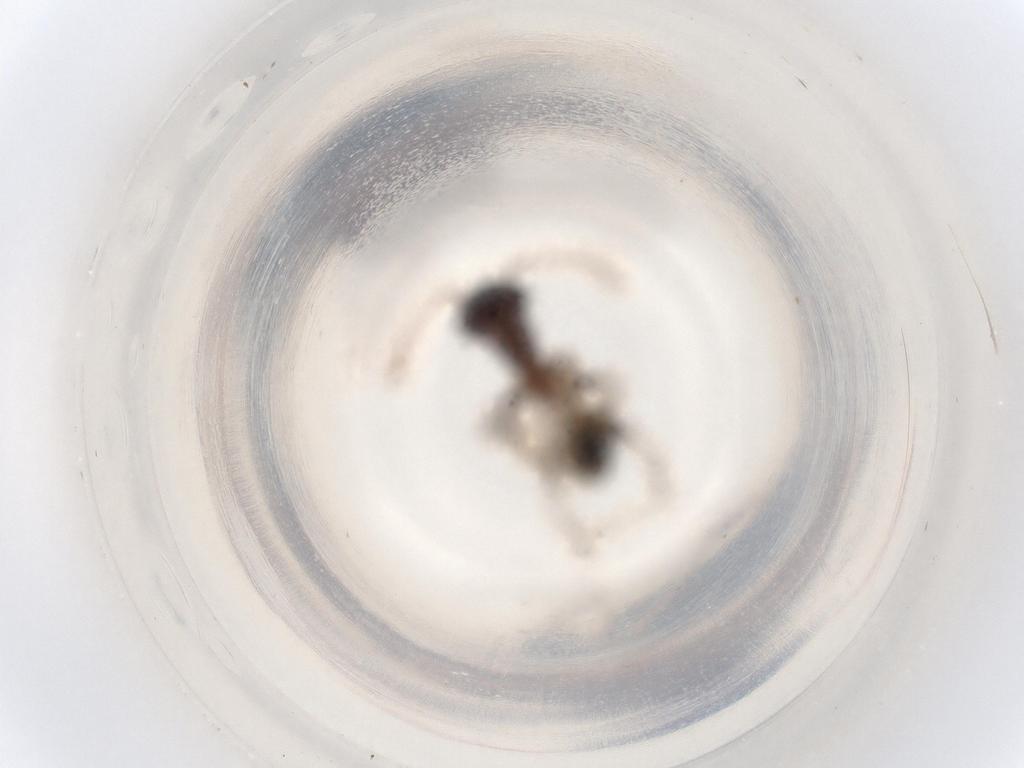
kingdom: Animalia
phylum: Arthropoda
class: Insecta
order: Hymenoptera
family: Formicidae
